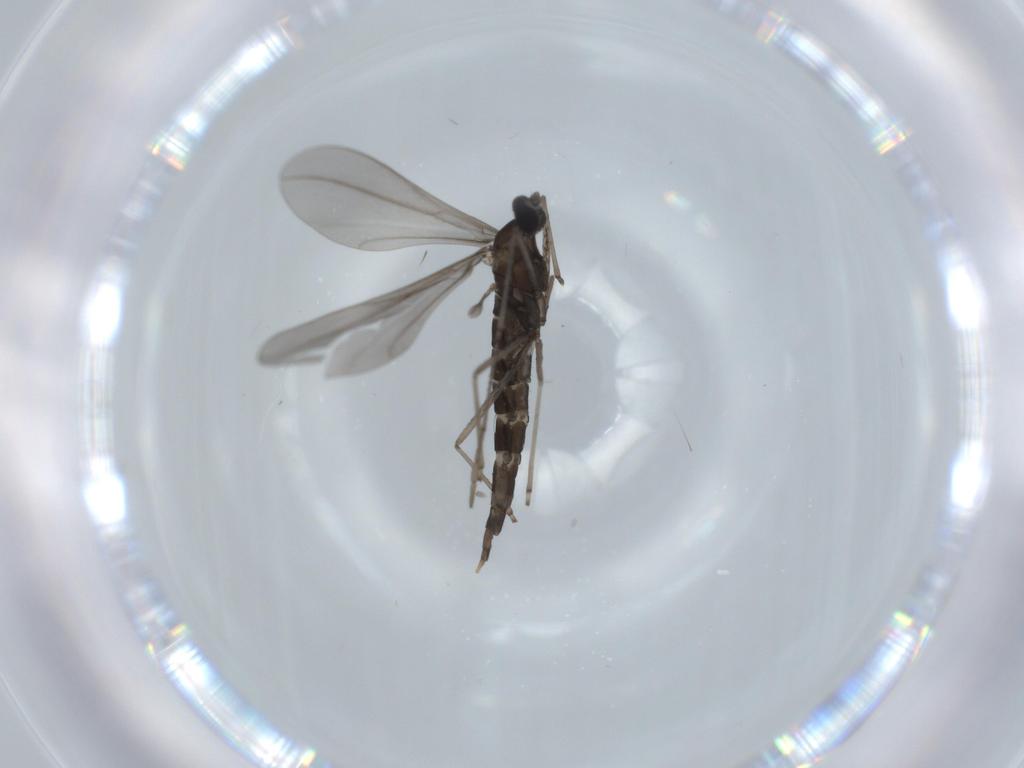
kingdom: Animalia
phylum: Arthropoda
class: Insecta
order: Diptera
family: Cecidomyiidae
